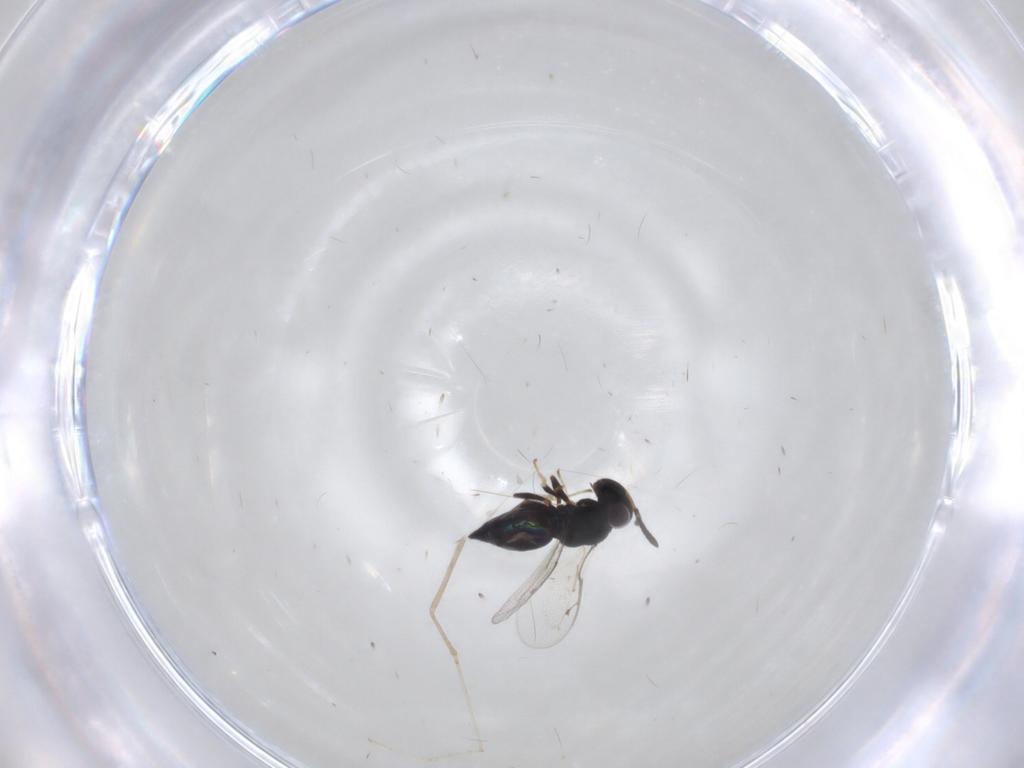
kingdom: Animalia
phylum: Arthropoda
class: Insecta
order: Hymenoptera
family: Pteromalidae
